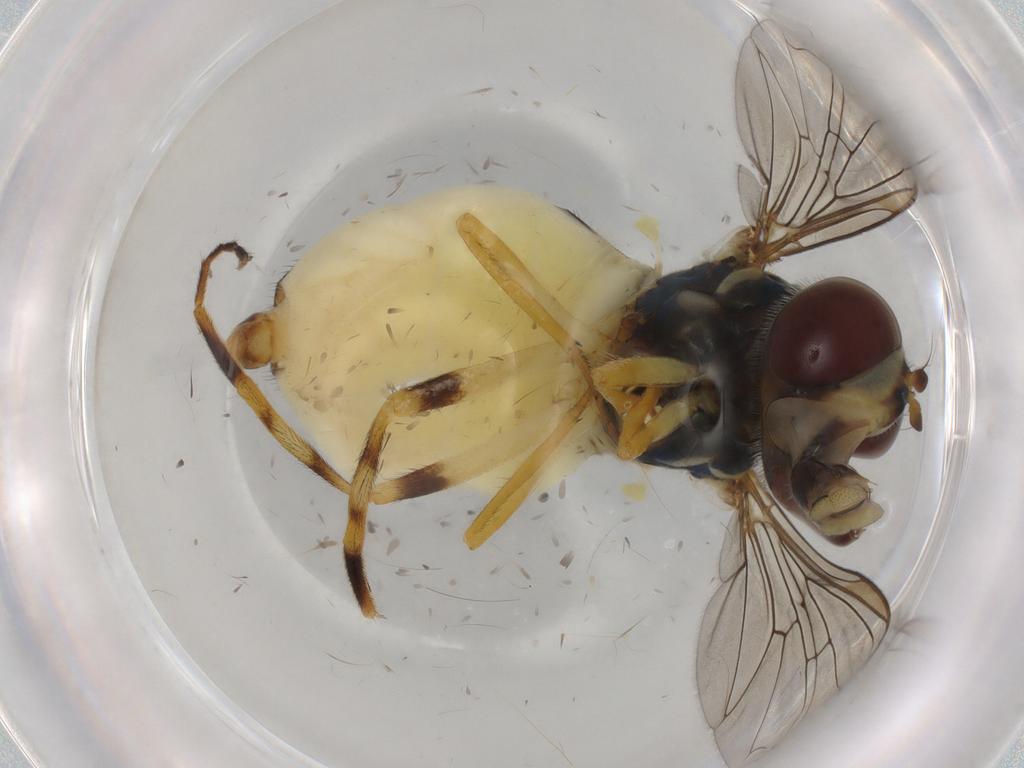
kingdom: Animalia
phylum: Arthropoda
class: Insecta
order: Diptera
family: Syrphidae
